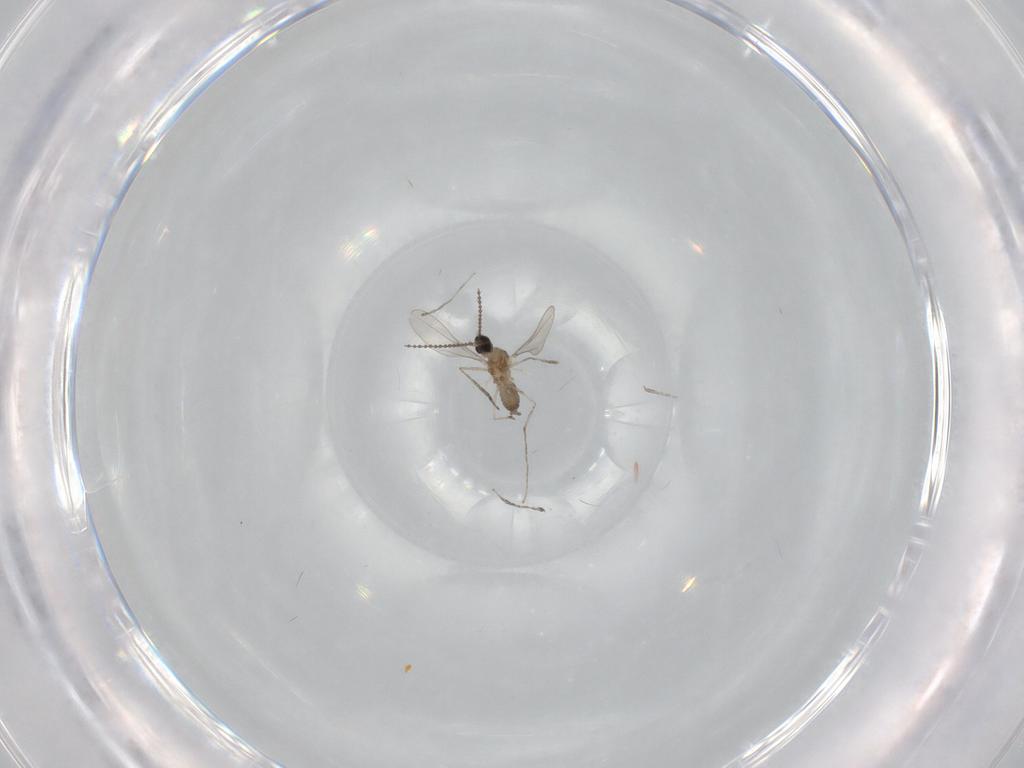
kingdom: Animalia
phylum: Arthropoda
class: Insecta
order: Diptera
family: Cecidomyiidae
